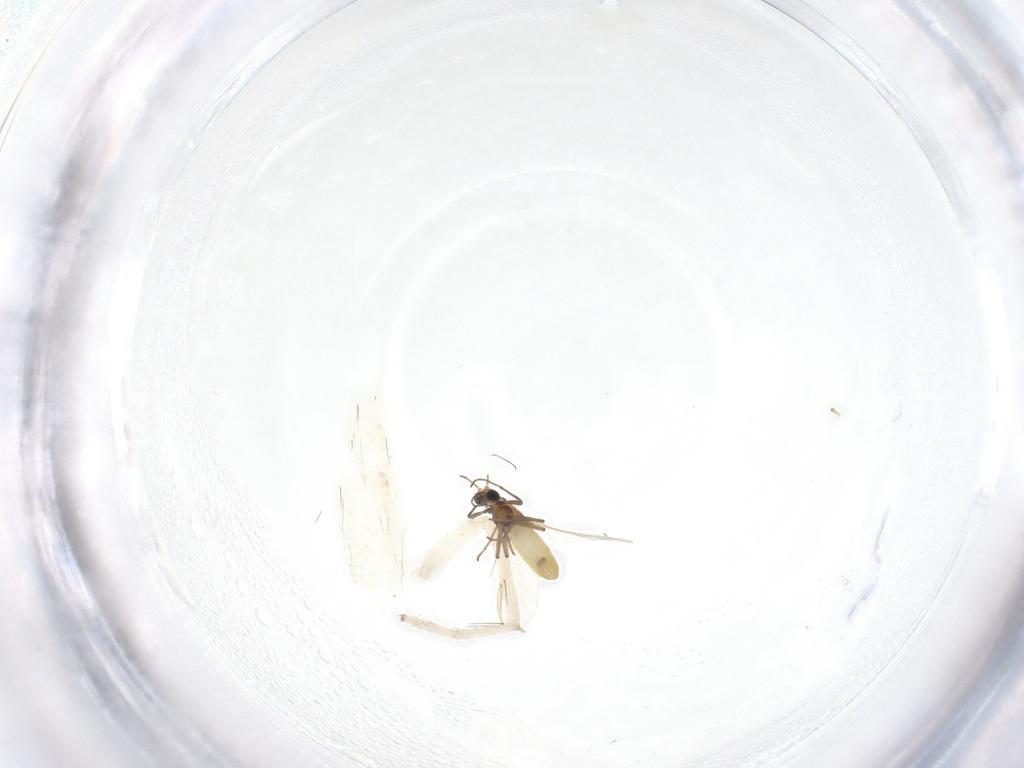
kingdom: Animalia
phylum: Arthropoda
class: Insecta
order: Diptera
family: Chironomidae
